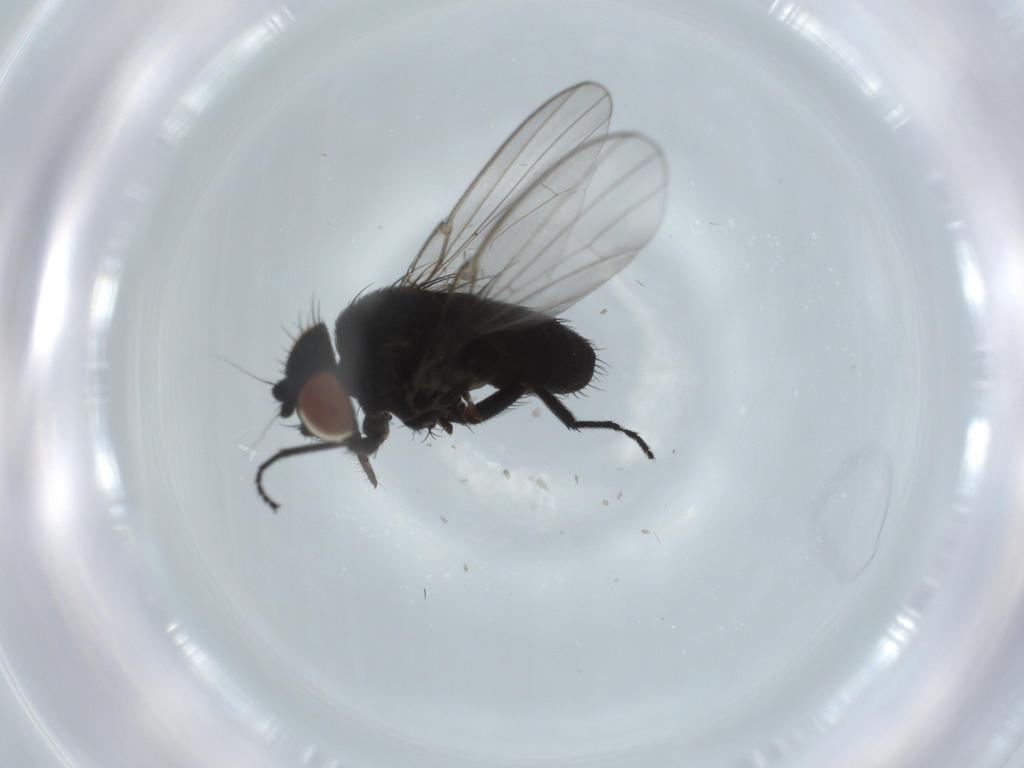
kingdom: Animalia
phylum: Arthropoda
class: Insecta
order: Diptera
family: Milichiidae
